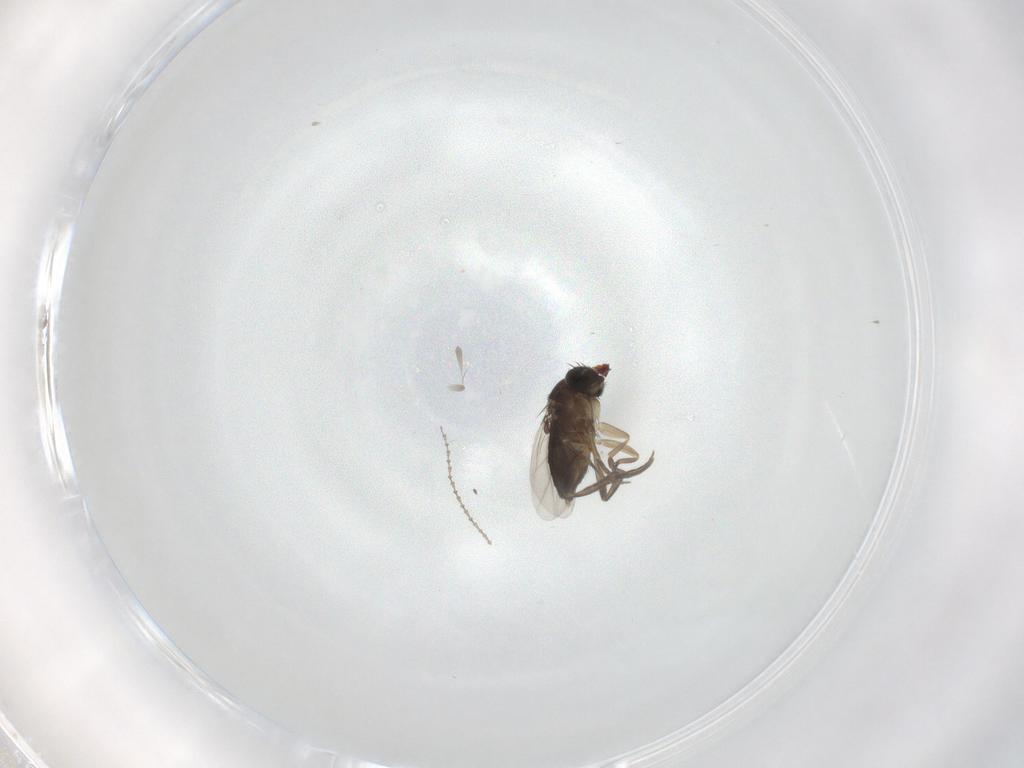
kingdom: Animalia
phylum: Arthropoda
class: Insecta
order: Diptera
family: Phoridae
